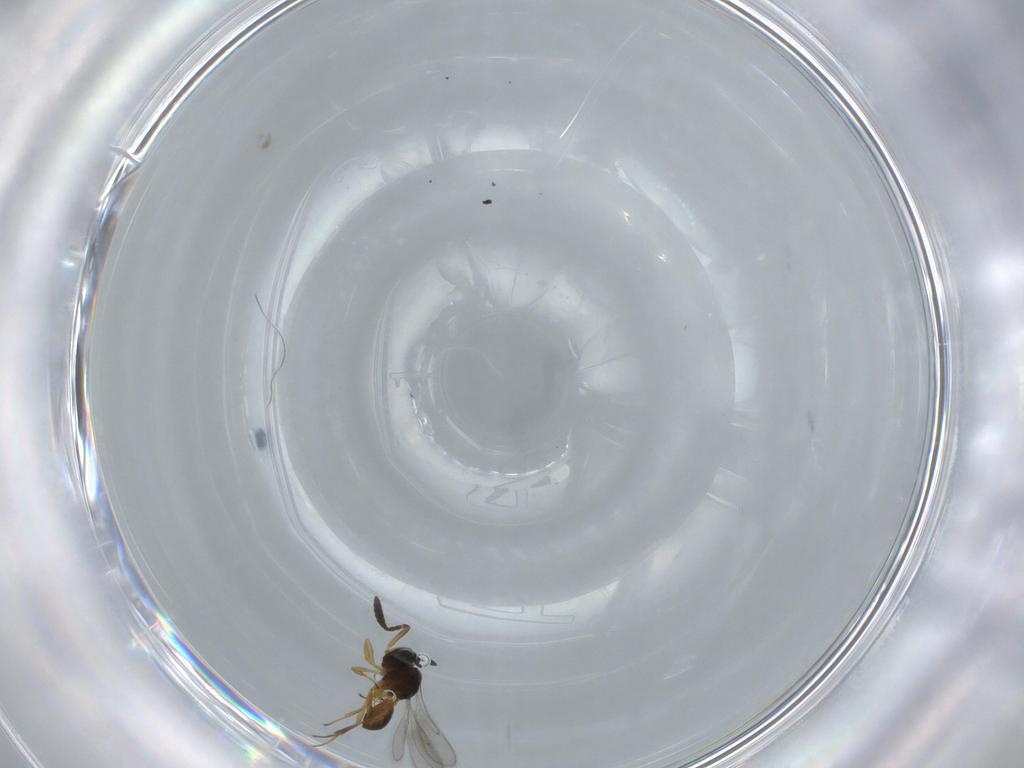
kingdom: Animalia
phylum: Arthropoda
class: Insecta
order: Hymenoptera
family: Scelionidae
